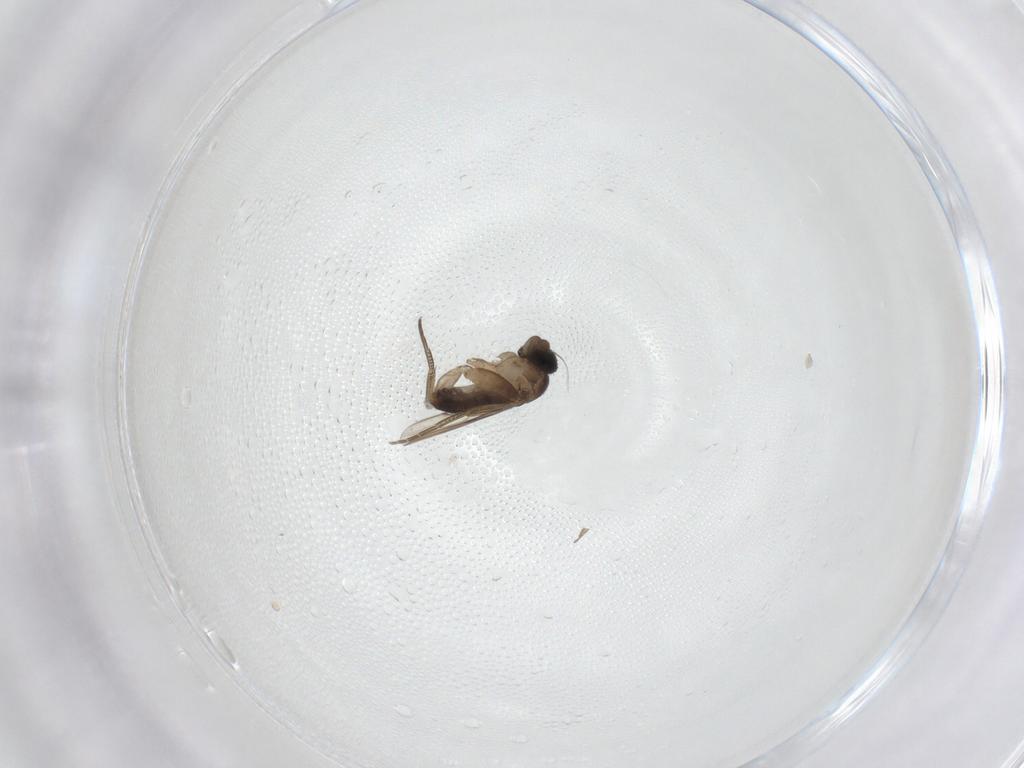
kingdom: Animalia
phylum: Arthropoda
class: Insecta
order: Diptera
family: Phoridae
